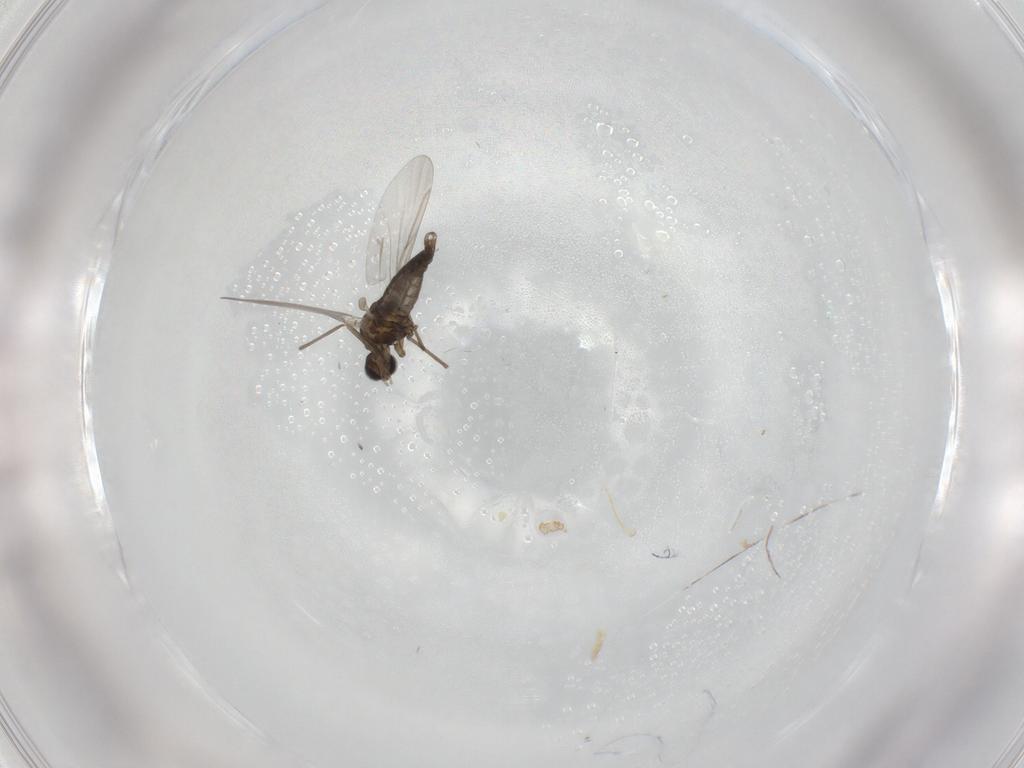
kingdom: Animalia
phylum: Arthropoda
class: Insecta
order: Diptera
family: Cecidomyiidae
